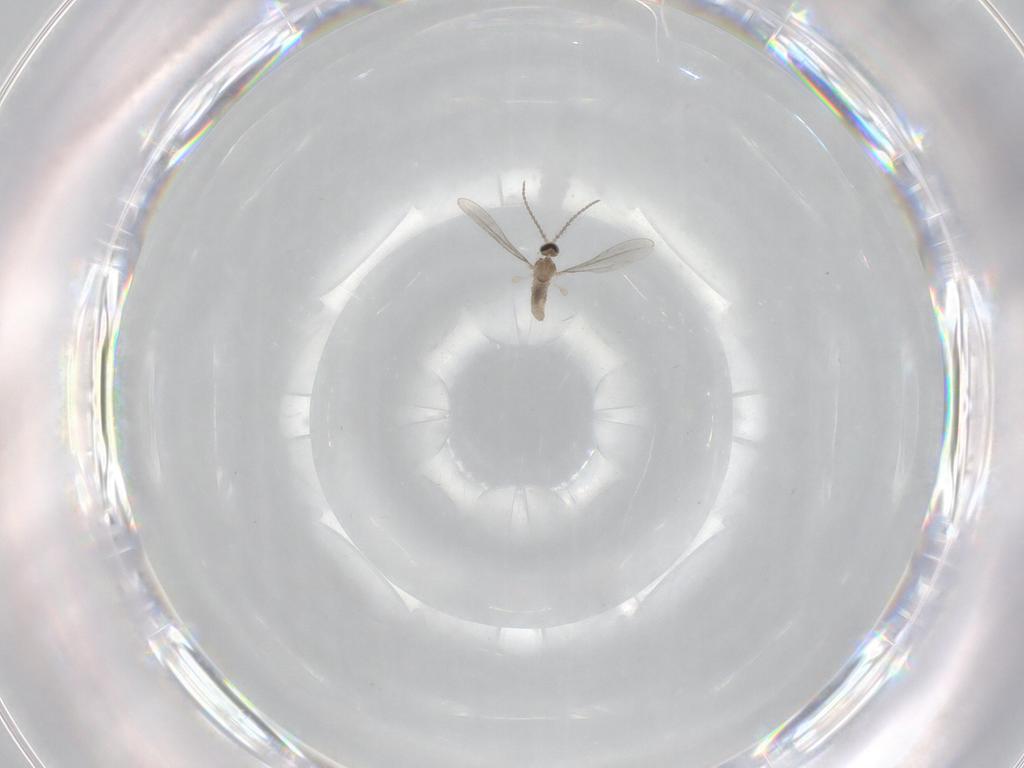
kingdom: Animalia
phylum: Arthropoda
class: Insecta
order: Diptera
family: Cecidomyiidae
